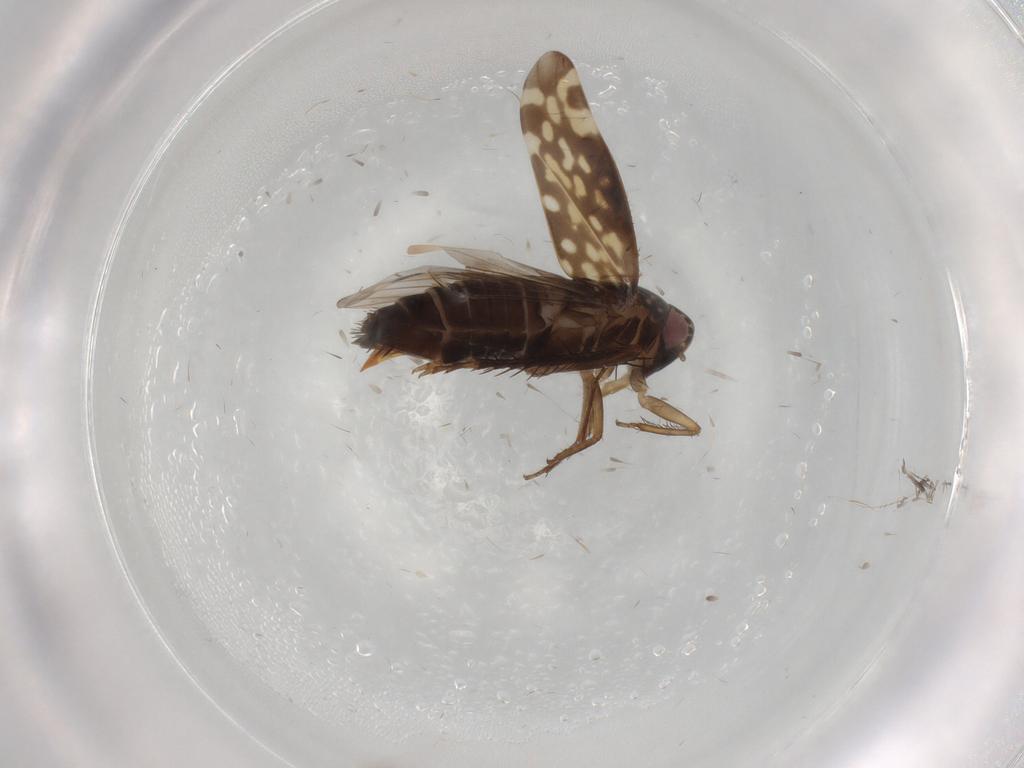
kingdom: Animalia
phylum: Arthropoda
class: Insecta
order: Hemiptera
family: Cicadellidae
